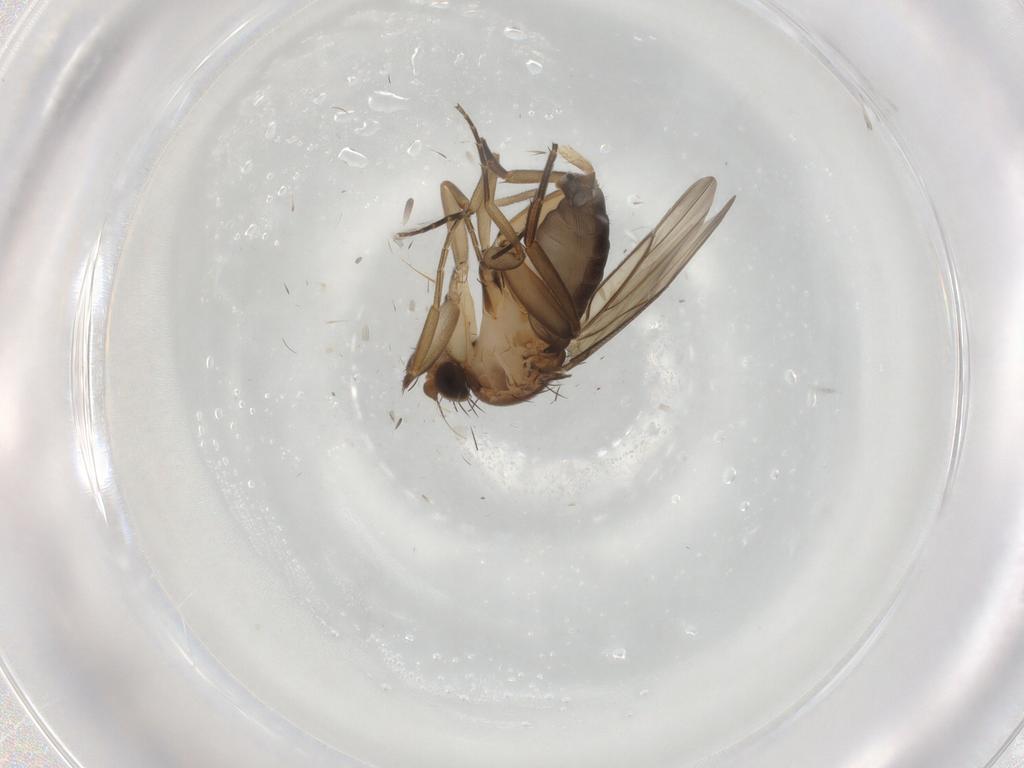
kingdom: Animalia
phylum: Arthropoda
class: Insecta
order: Diptera
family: Phoridae
